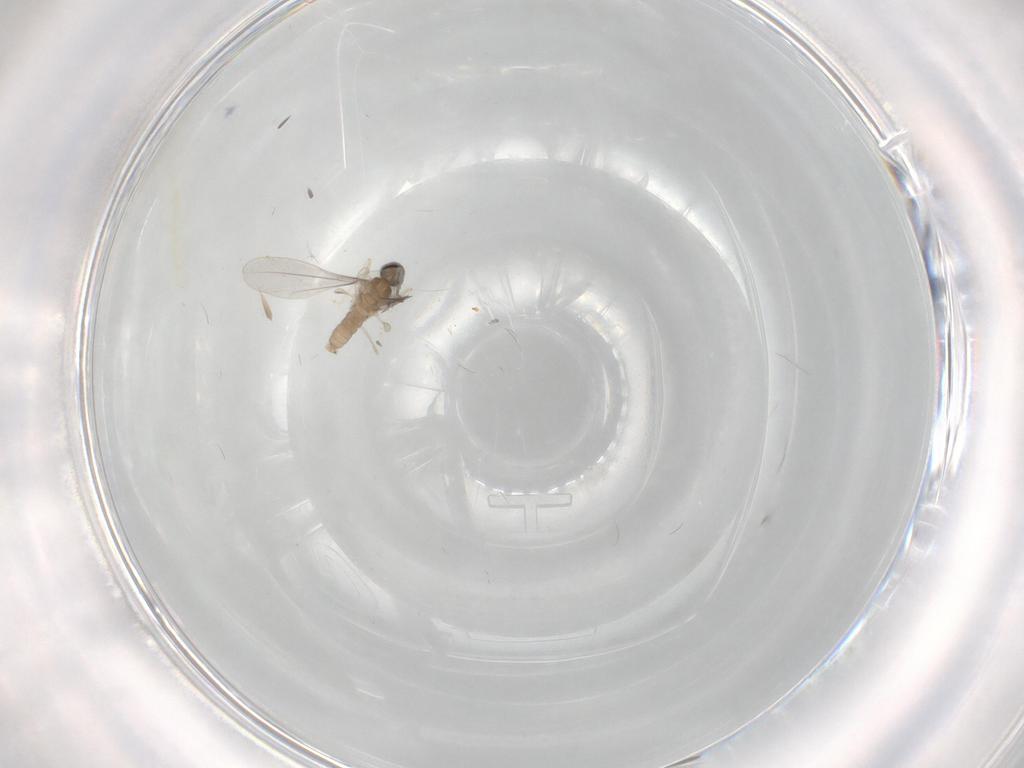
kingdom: Animalia
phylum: Arthropoda
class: Insecta
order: Diptera
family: Cecidomyiidae
